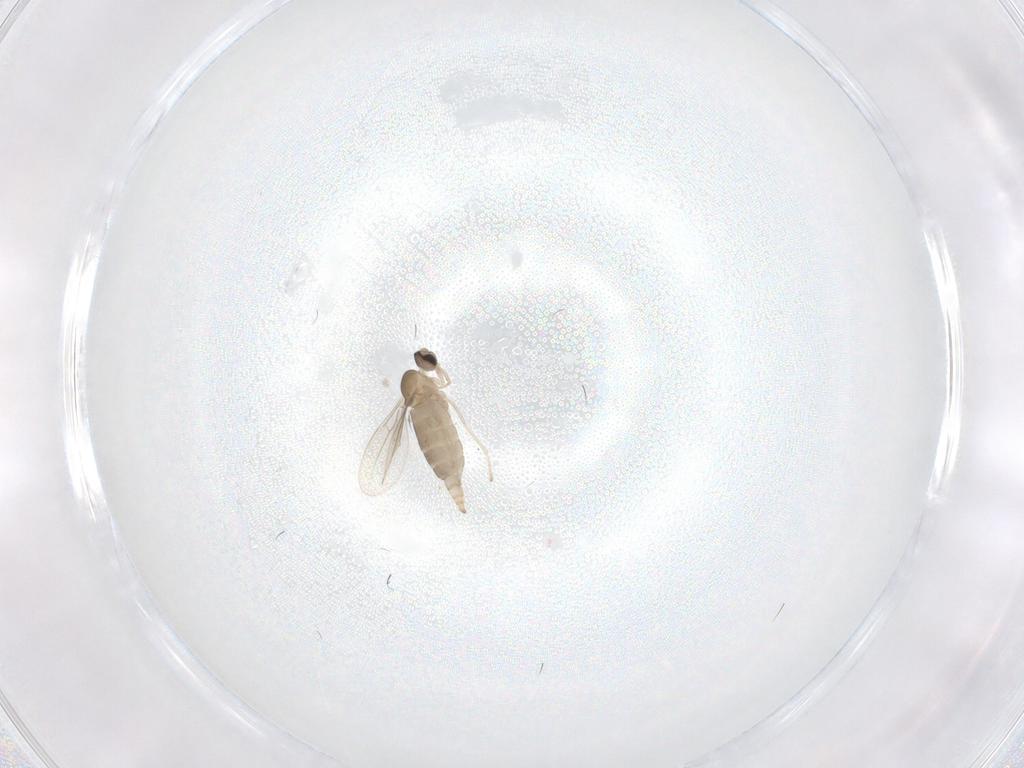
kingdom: Animalia
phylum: Arthropoda
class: Insecta
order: Diptera
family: Cecidomyiidae
